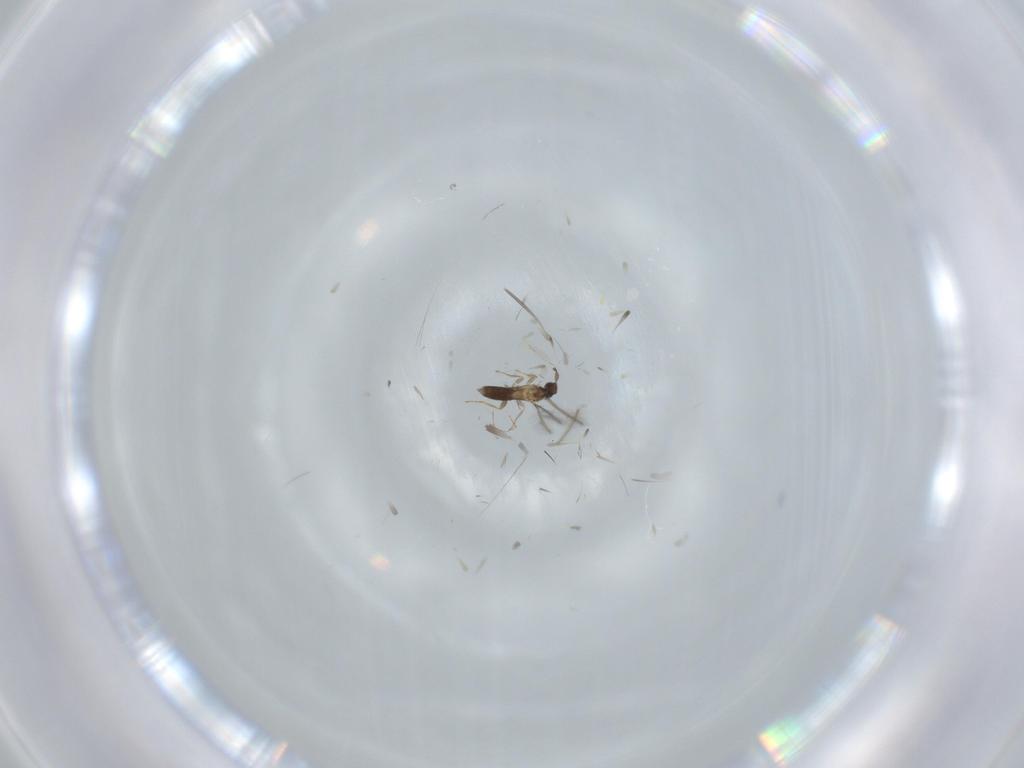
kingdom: Animalia
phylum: Arthropoda
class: Insecta
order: Hymenoptera
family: Mymaridae
